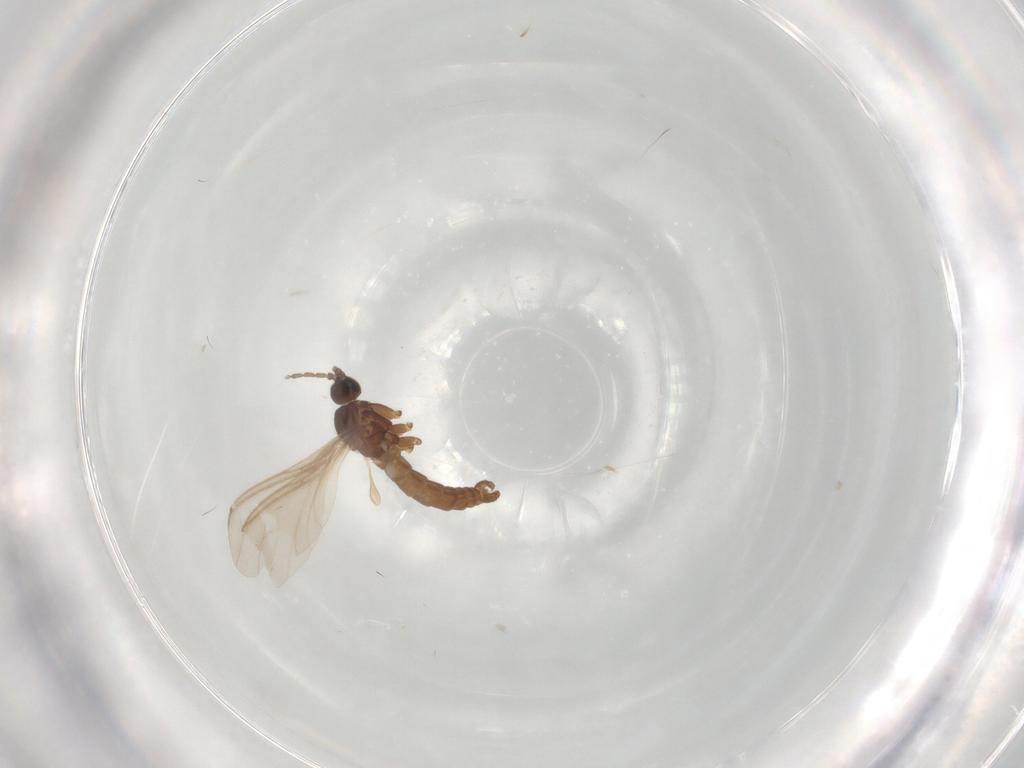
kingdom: Animalia
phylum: Arthropoda
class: Insecta
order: Diptera
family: Sciaridae
